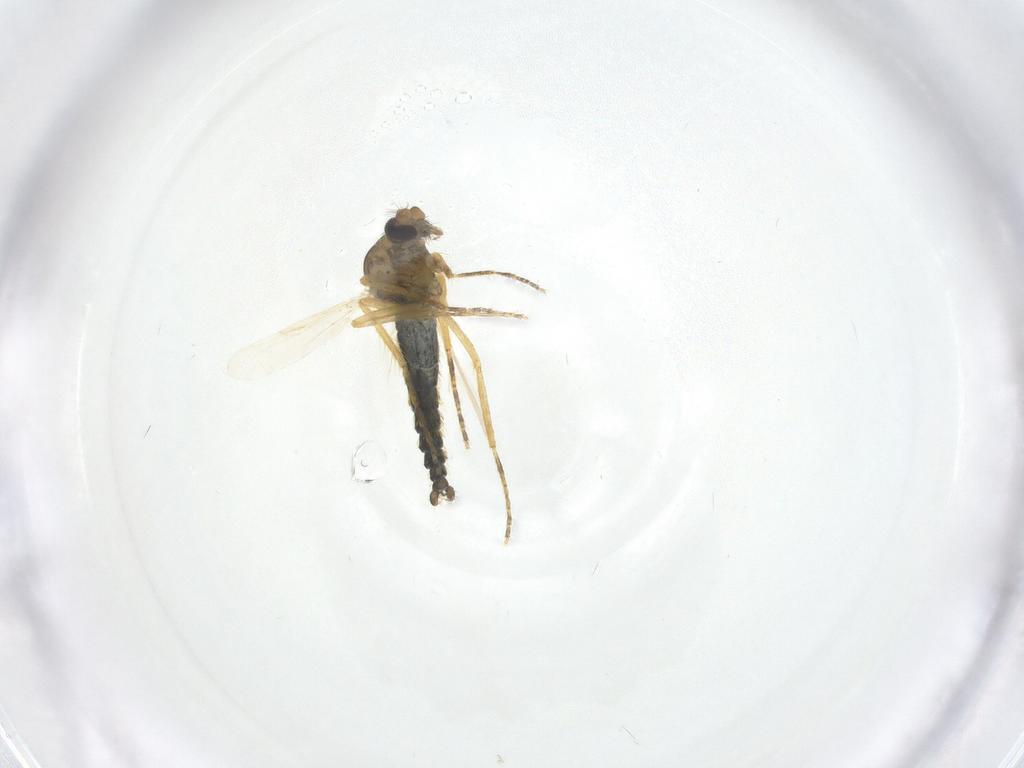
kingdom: Animalia
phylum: Arthropoda
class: Insecta
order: Diptera
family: Ceratopogonidae
